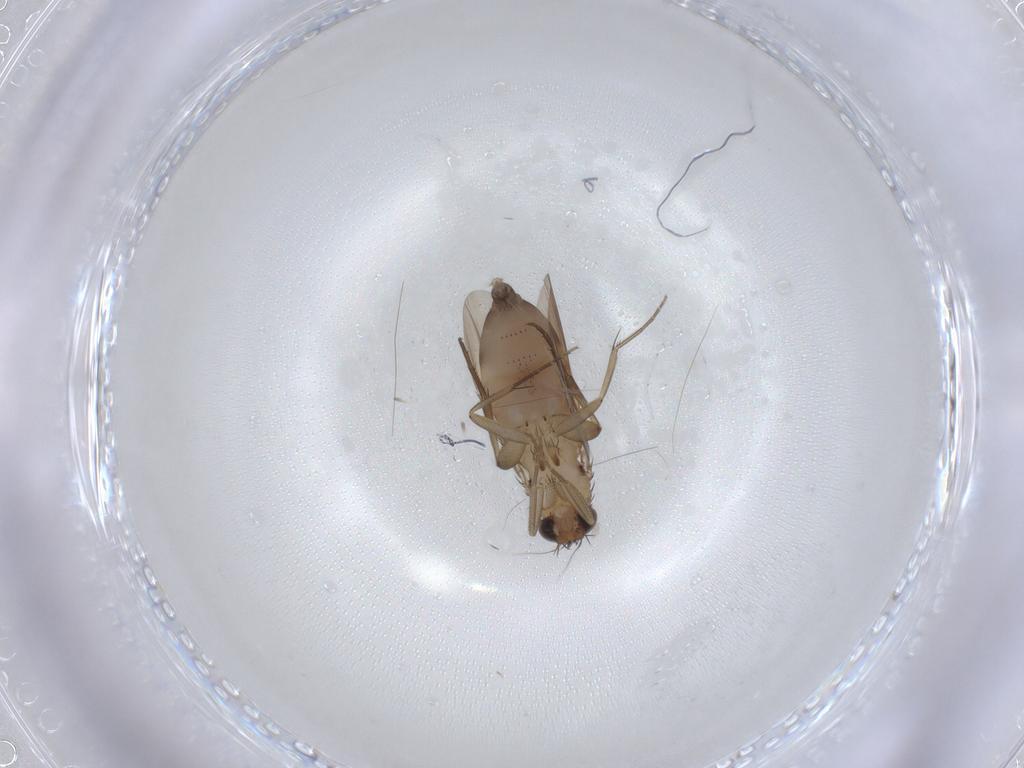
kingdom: Animalia
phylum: Arthropoda
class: Insecta
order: Diptera
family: Phoridae
